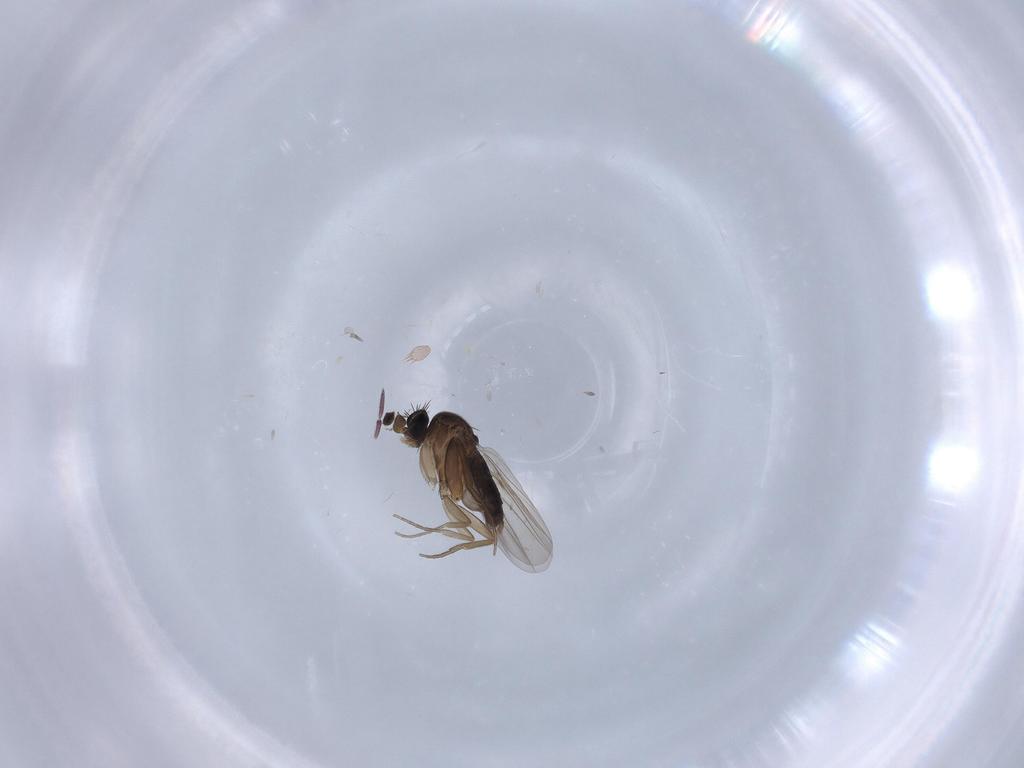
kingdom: Animalia
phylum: Arthropoda
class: Insecta
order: Diptera
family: Phoridae
